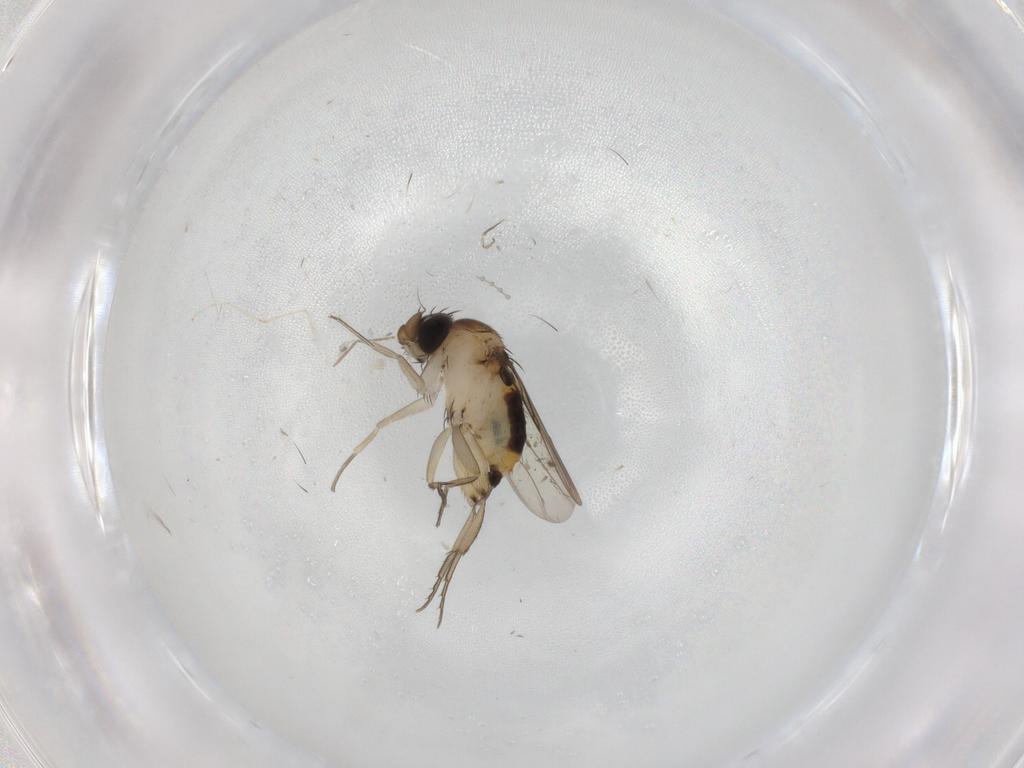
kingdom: Animalia
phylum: Arthropoda
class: Insecta
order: Diptera
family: Phoridae
